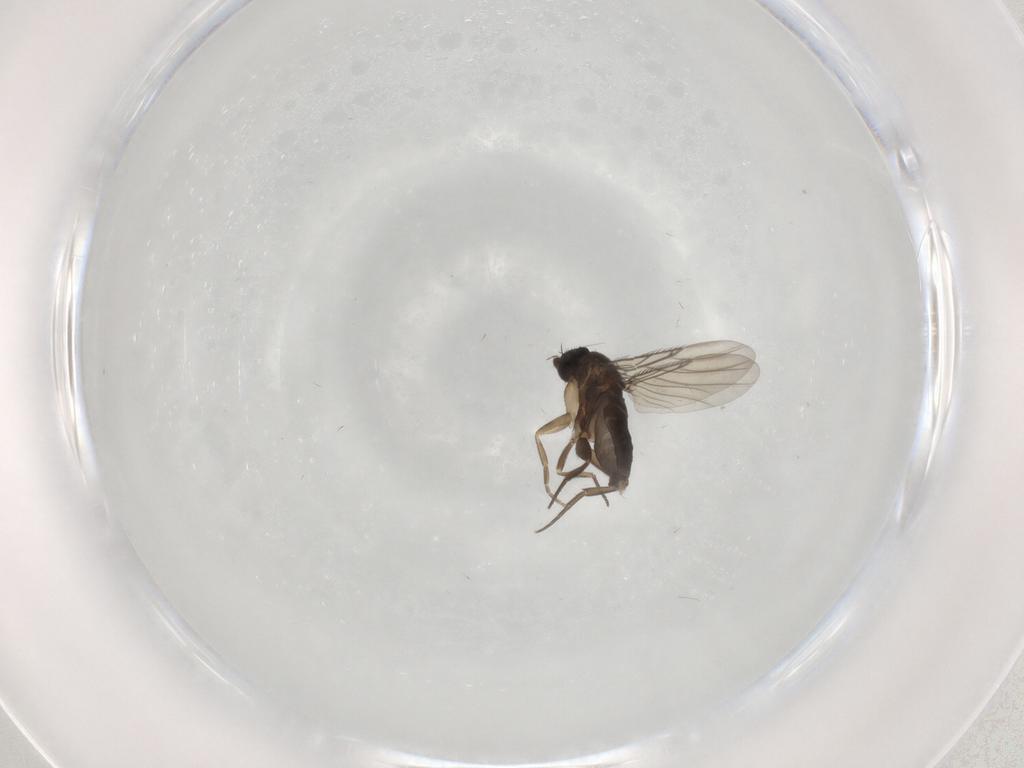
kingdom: Animalia
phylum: Arthropoda
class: Insecta
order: Diptera
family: Phoridae
